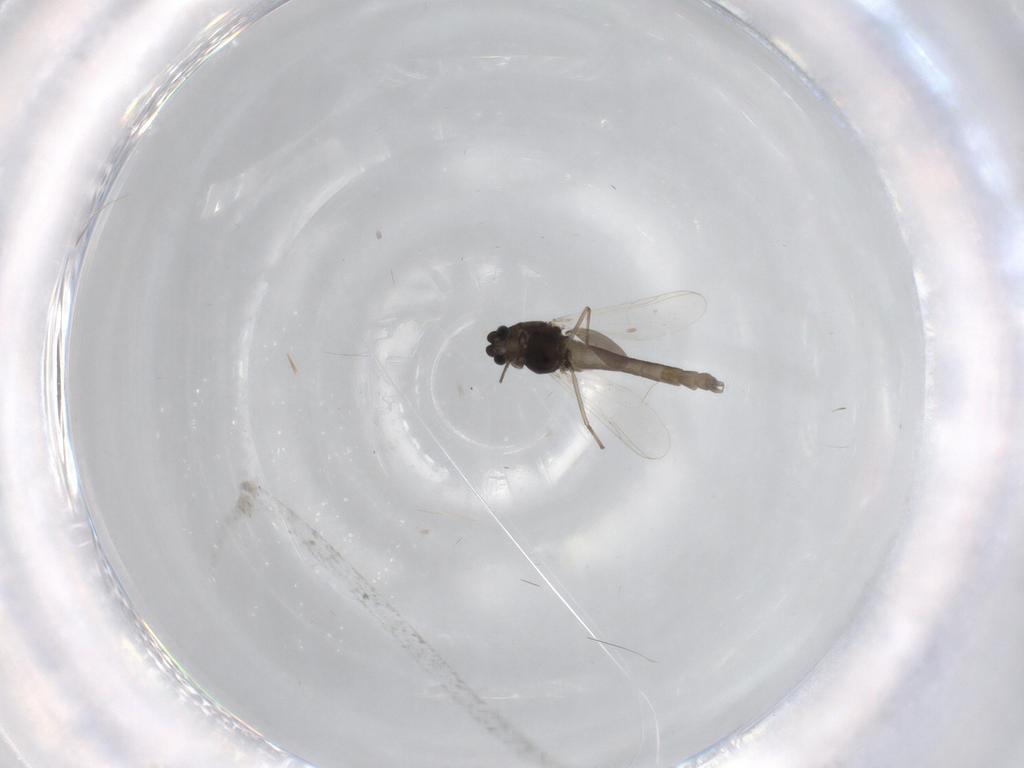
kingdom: Animalia
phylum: Arthropoda
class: Insecta
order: Diptera
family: Chironomidae
